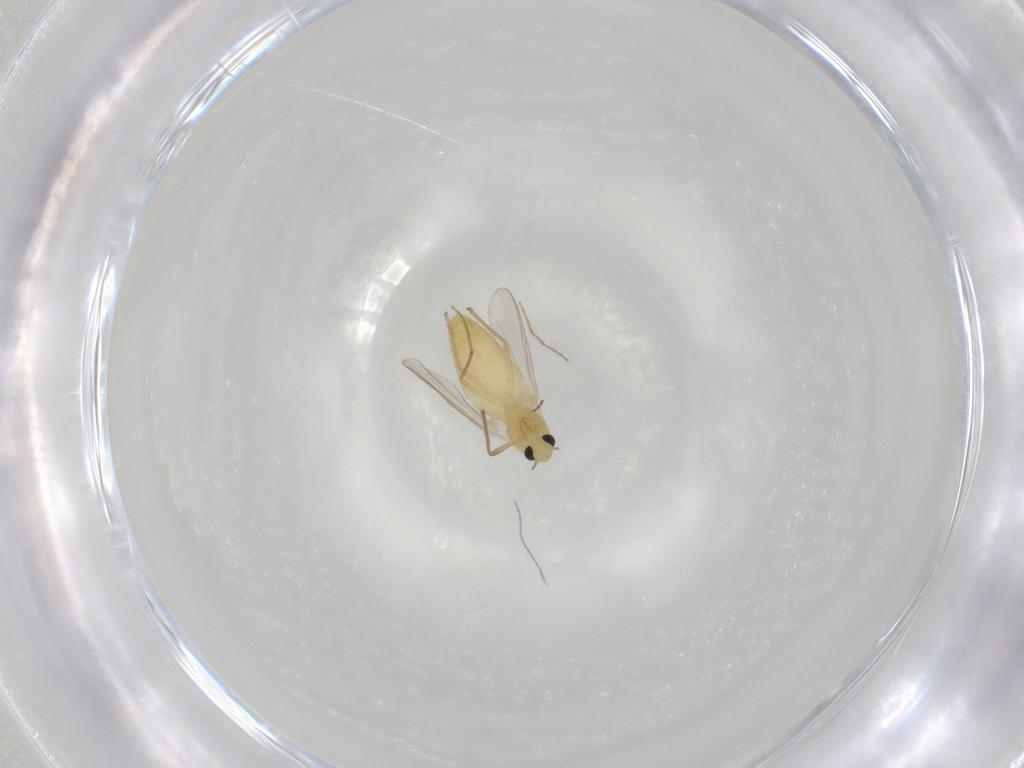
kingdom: Animalia
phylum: Arthropoda
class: Insecta
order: Diptera
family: Chironomidae
